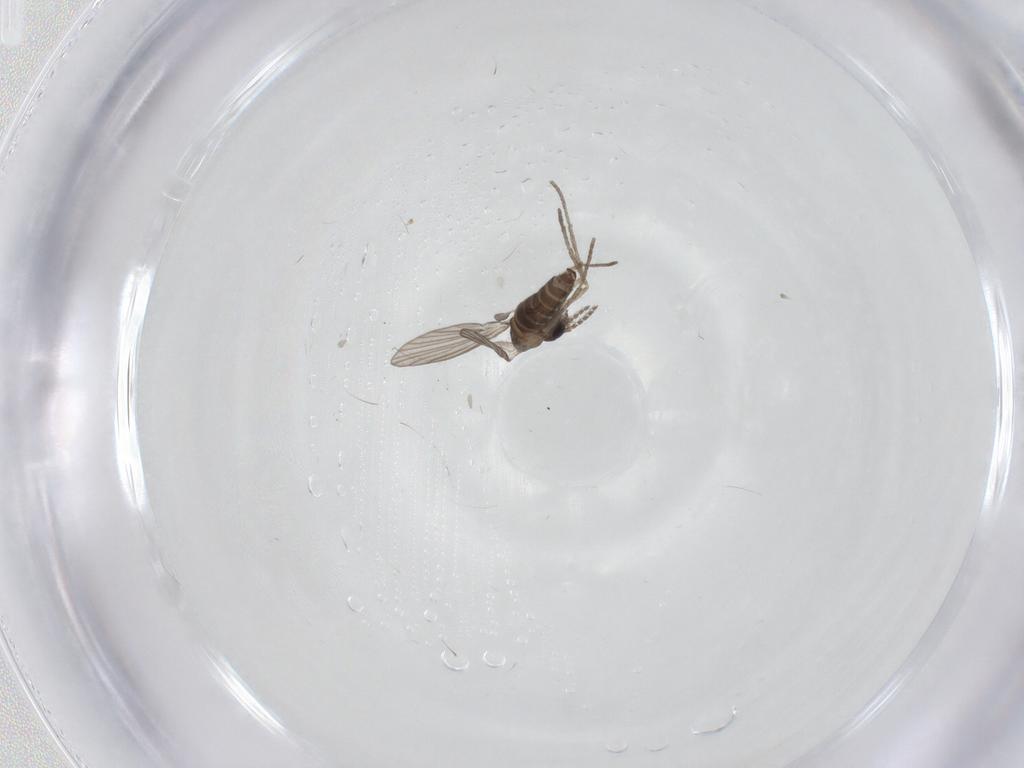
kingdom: Animalia
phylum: Arthropoda
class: Insecta
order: Diptera
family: Psychodidae
